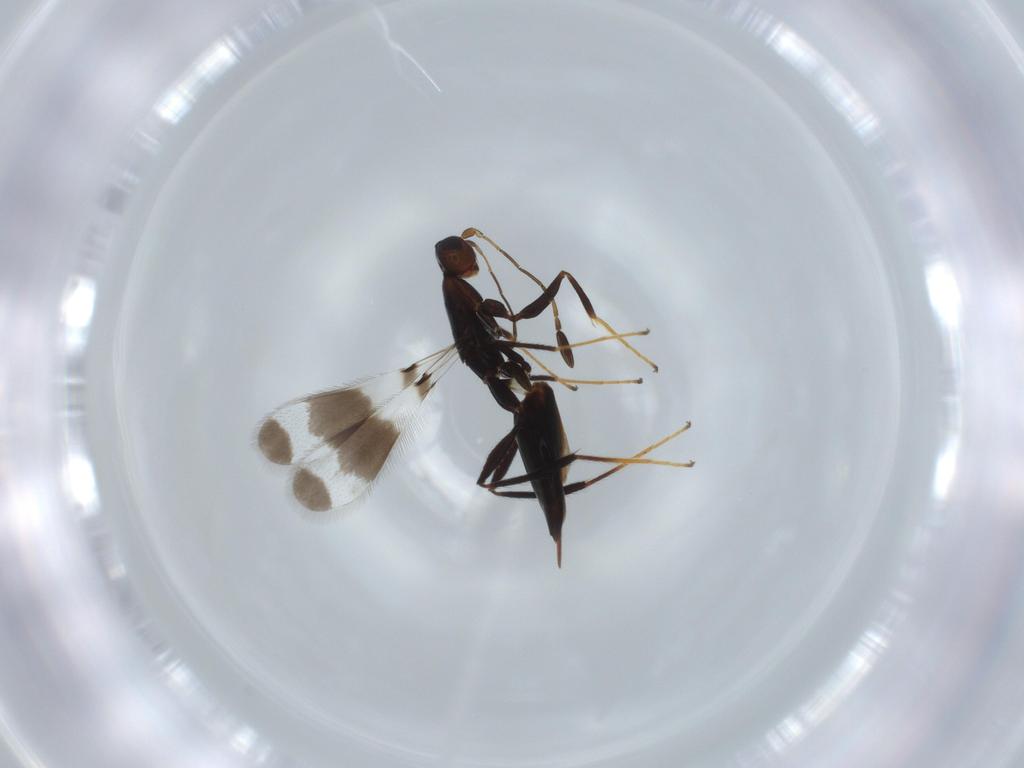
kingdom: Animalia
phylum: Arthropoda
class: Insecta
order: Hymenoptera
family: Mymaridae
